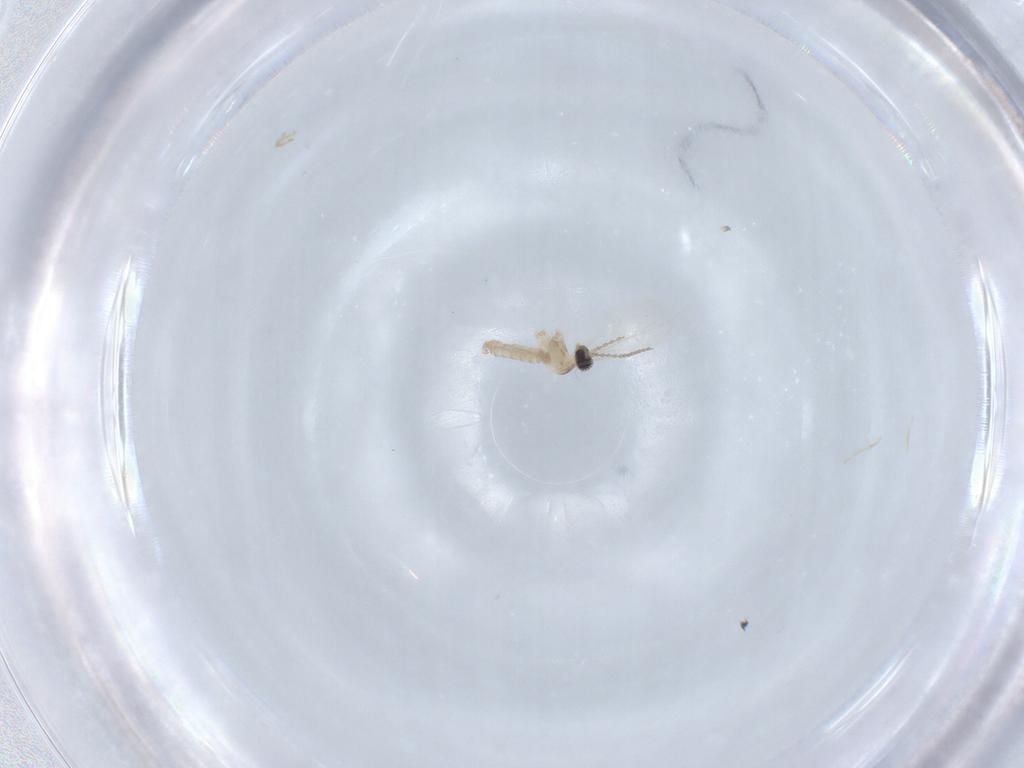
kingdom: Animalia
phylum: Arthropoda
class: Insecta
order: Diptera
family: Cecidomyiidae
